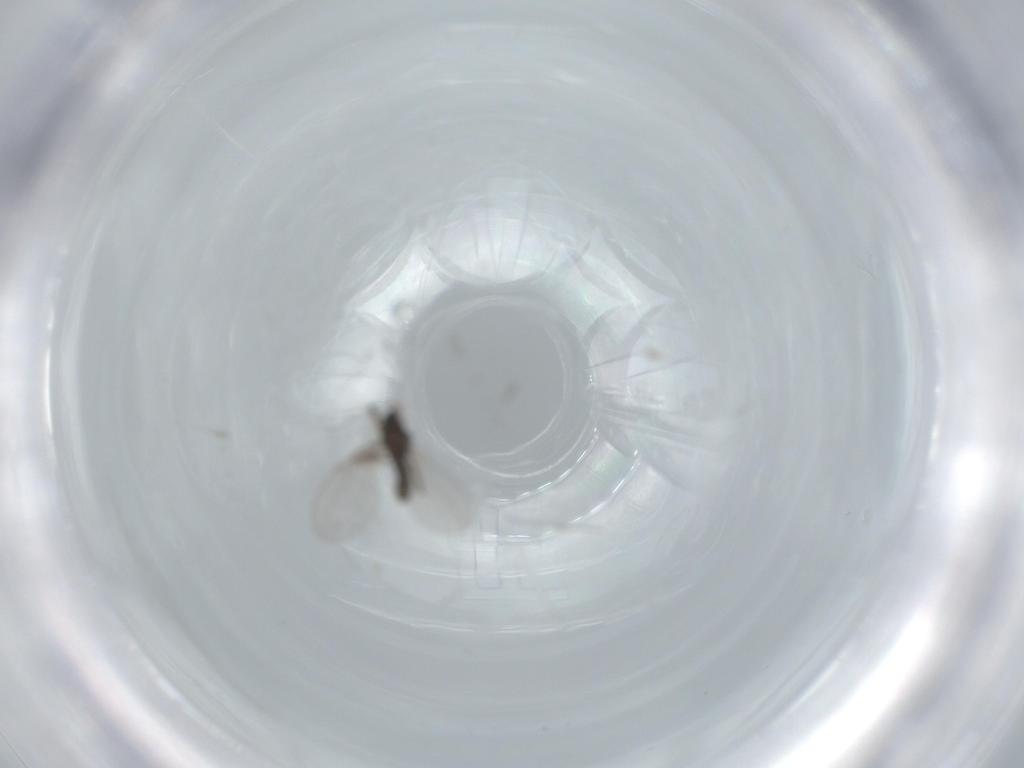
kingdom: Animalia
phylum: Arthropoda
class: Insecta
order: Diptera
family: Cecidomyiidae
